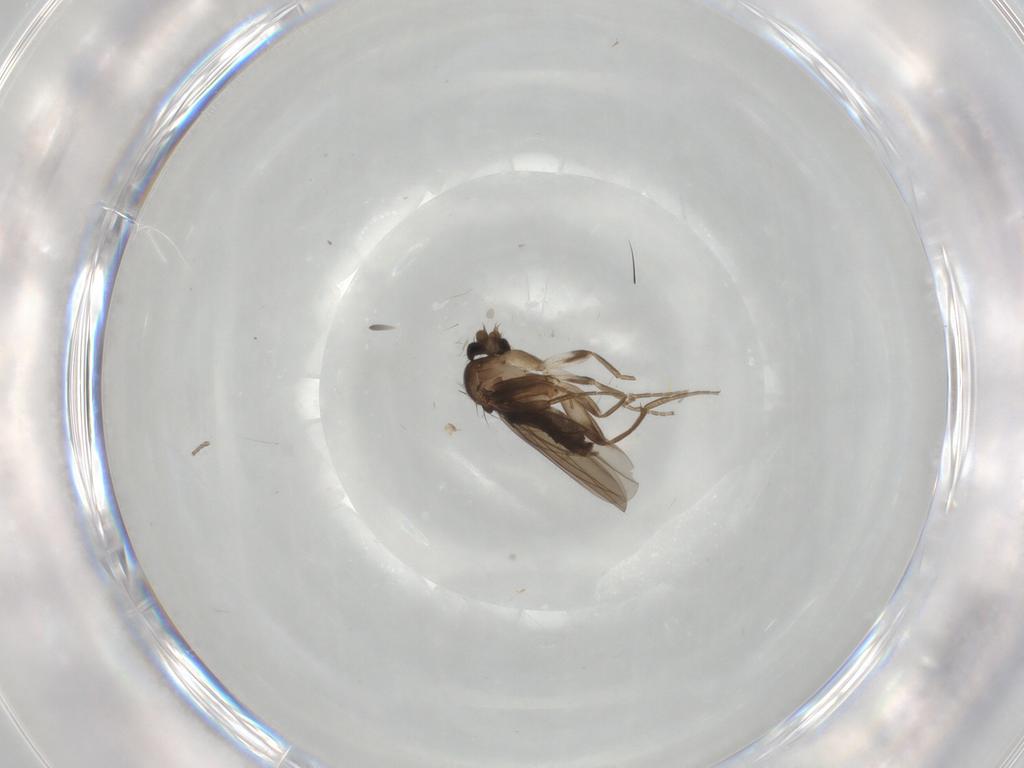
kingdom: Animalia
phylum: Arthropoda
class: Insecta
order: Diptera
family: Cecidomyiidae
